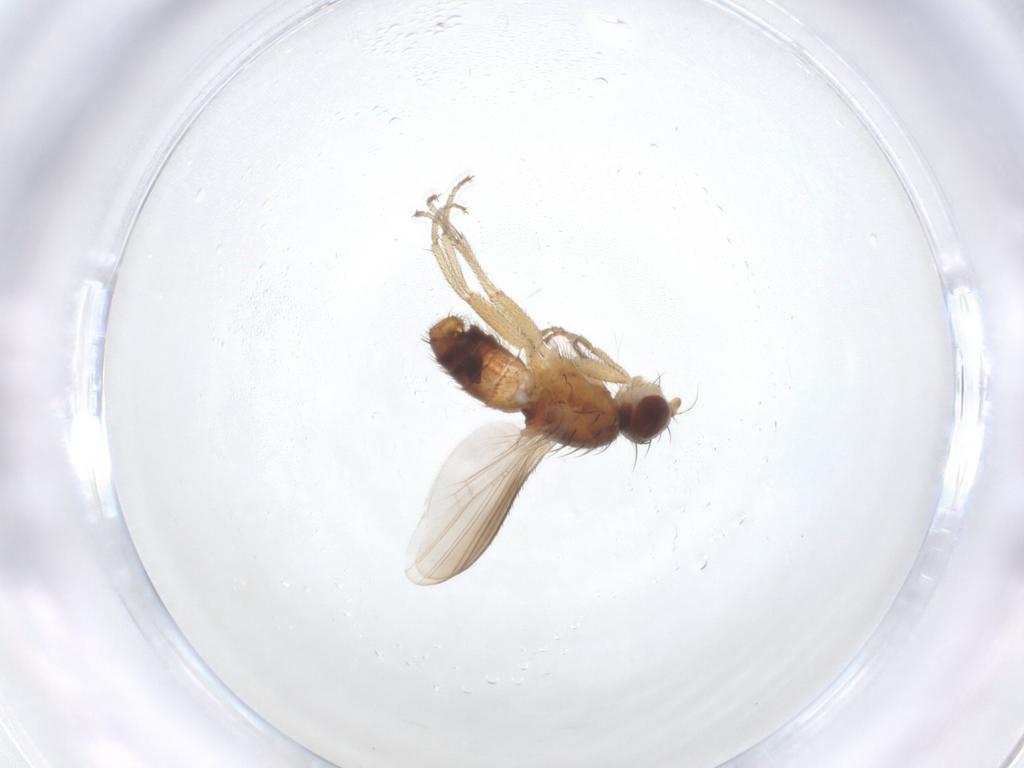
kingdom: Animalia
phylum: Arthropoda
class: Insecta
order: Diptera
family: Heleomyzidae
